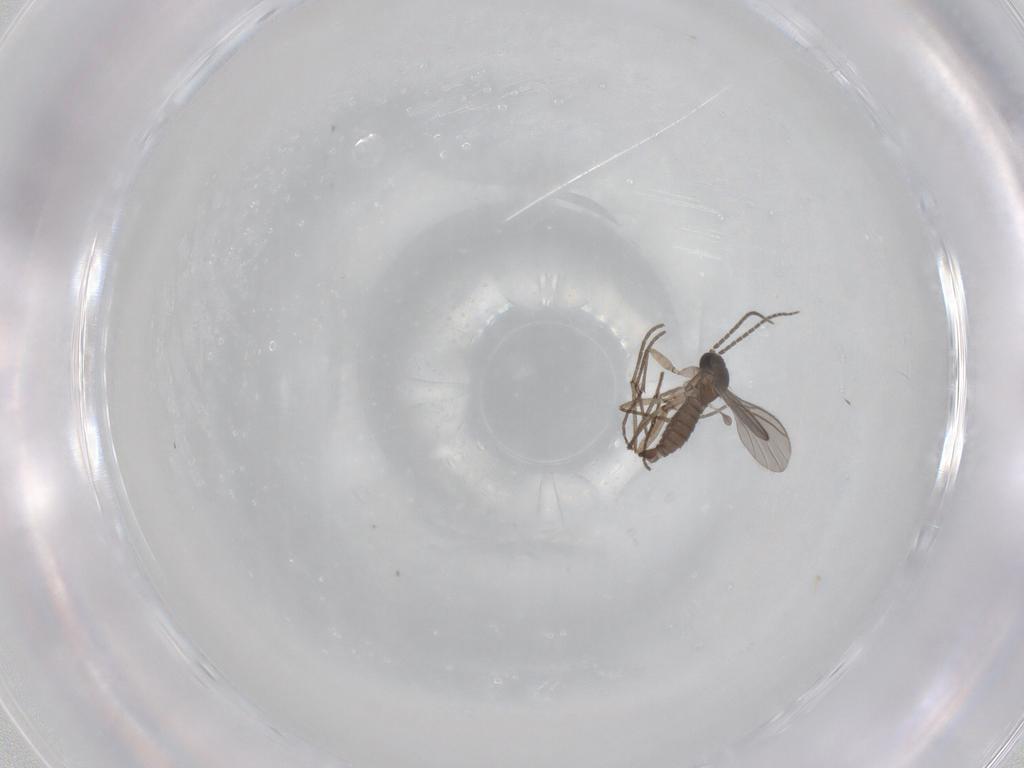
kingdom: Animalia
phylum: Arthropoda
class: Insecta
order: Diptera
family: Sciaridae
